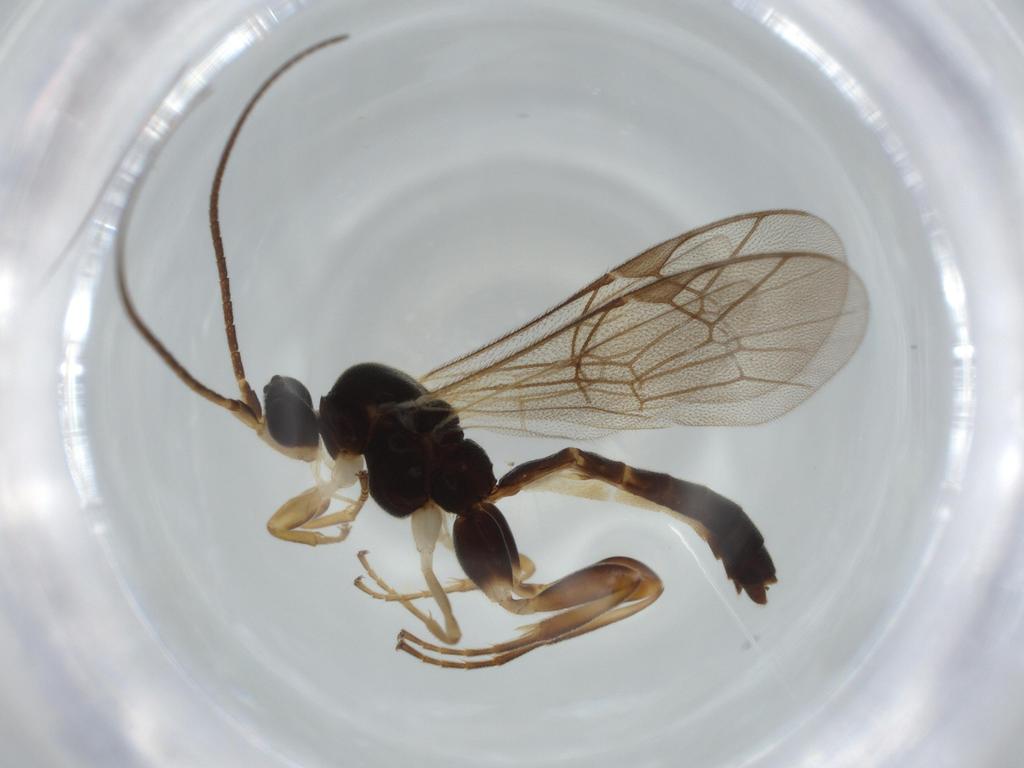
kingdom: Animalia
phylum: Arthropoda
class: Insecta
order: Hymenoptera
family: Ichneumonidae
